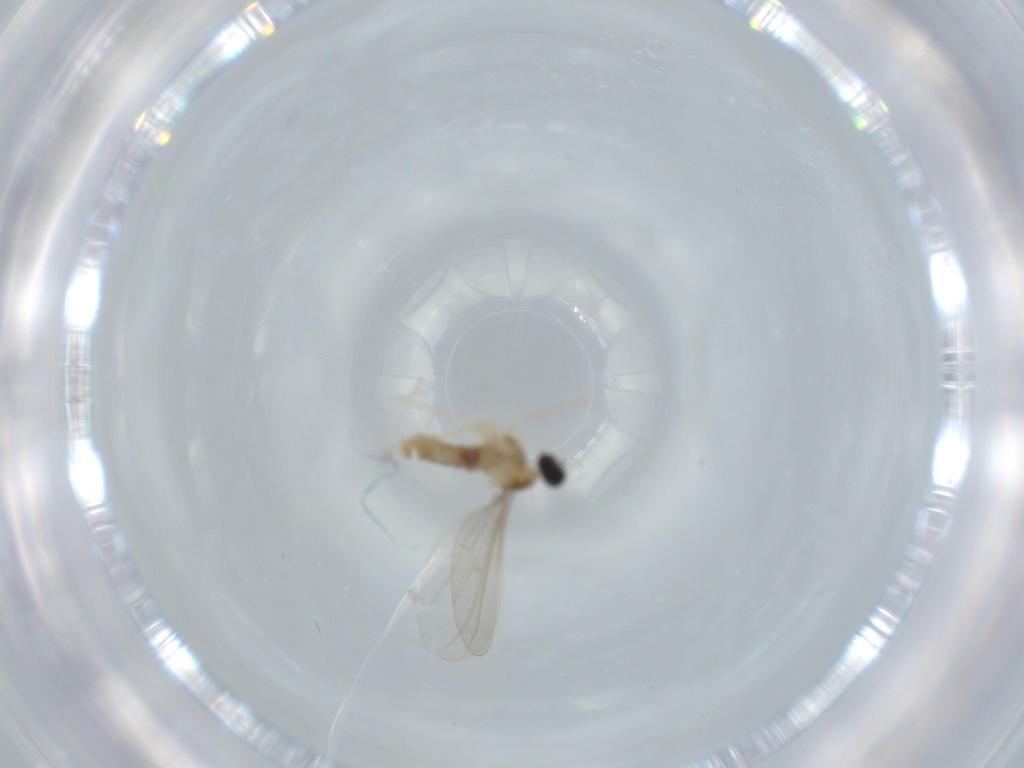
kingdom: Animalia
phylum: Arthropoda
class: Insecta
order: Diptera
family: Cecidomyiidae
